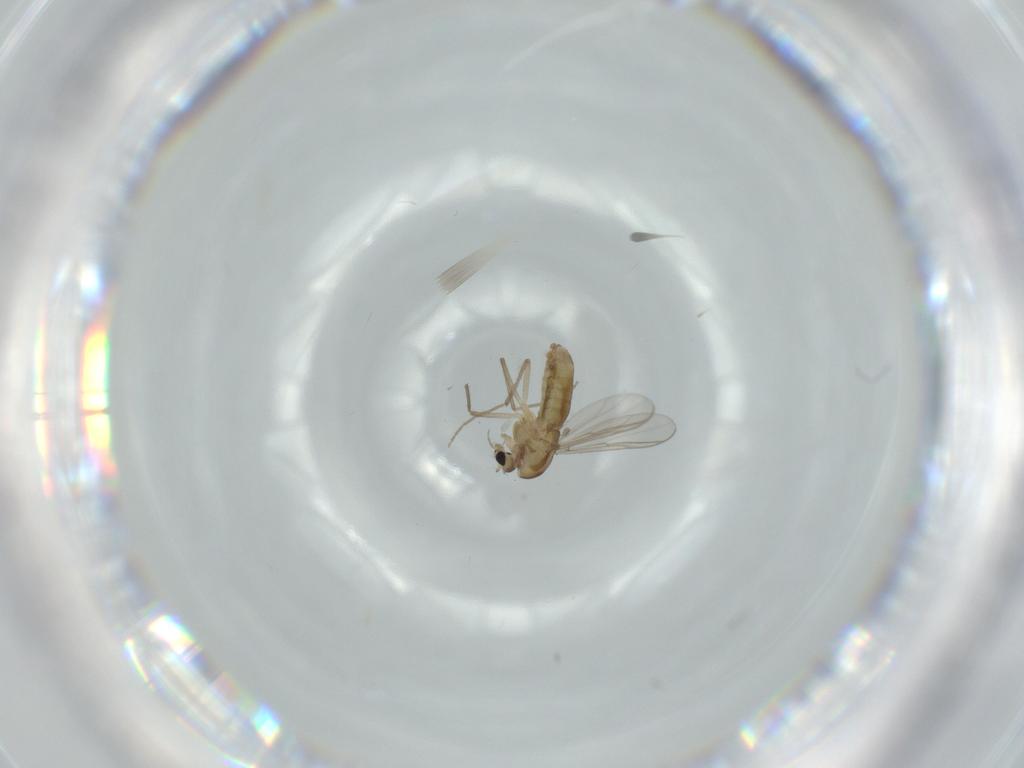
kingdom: Animalia
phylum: Arthropoda
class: Insecta
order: Diptera
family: Chironomidae
